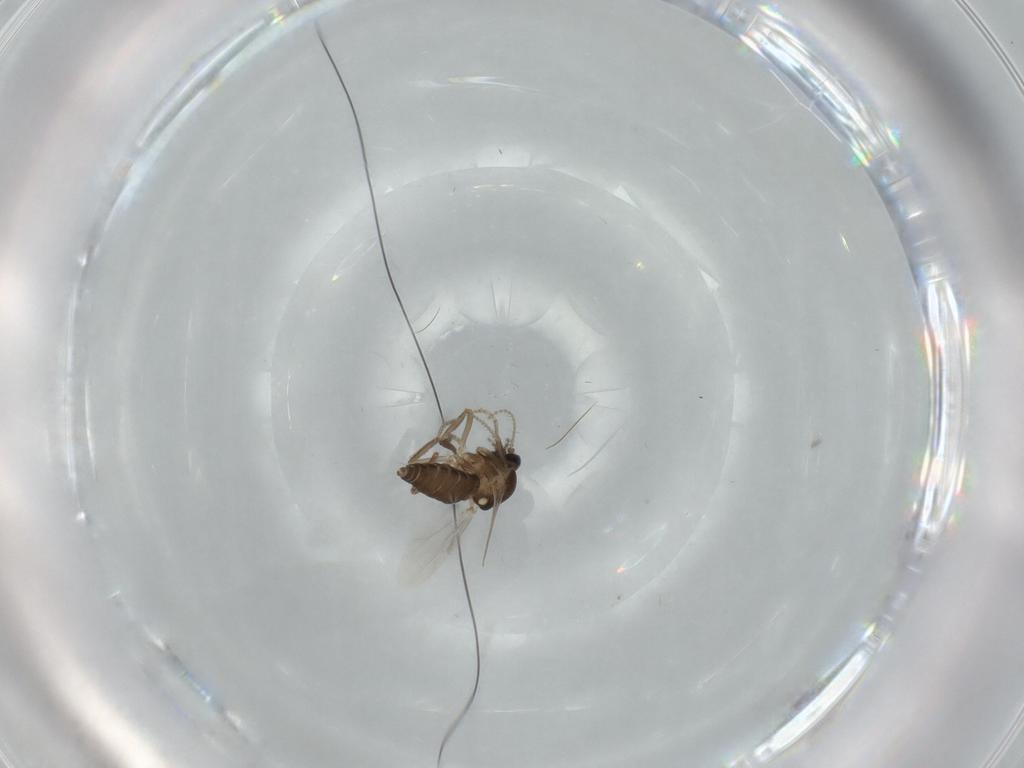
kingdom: Animalia
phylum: Arthropoda
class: Insecta
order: Diptera
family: Ceratopogonidae
